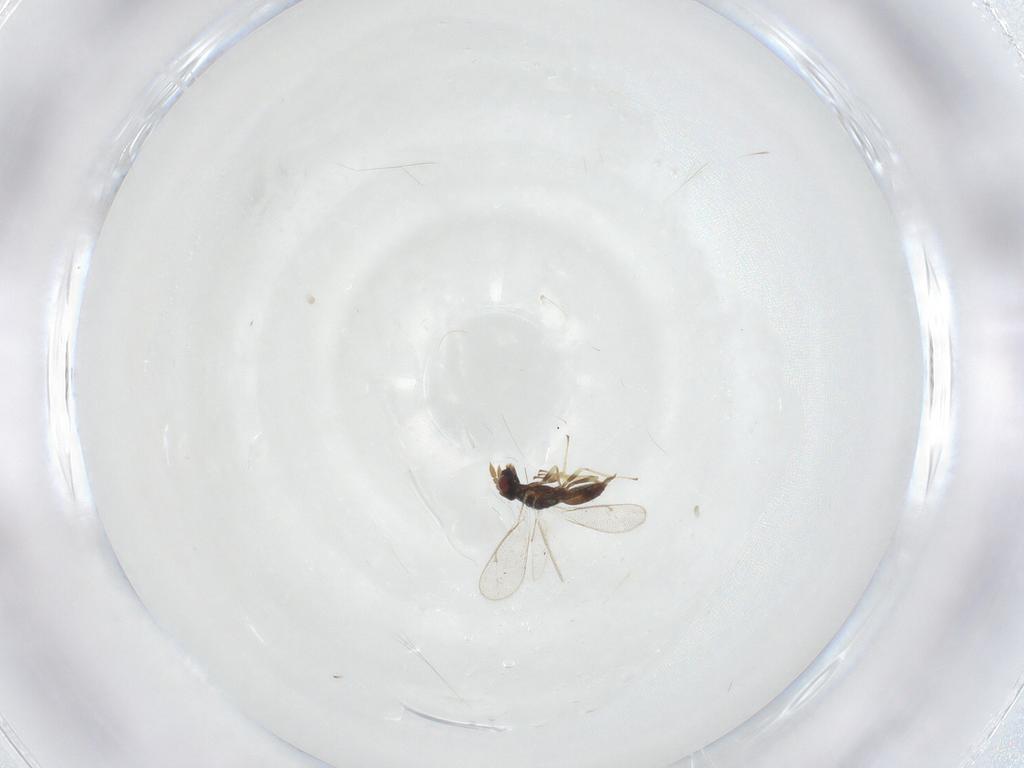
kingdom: Animalia
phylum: Arthropoda
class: Insecta
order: Hymenoptera
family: Eulophidae
